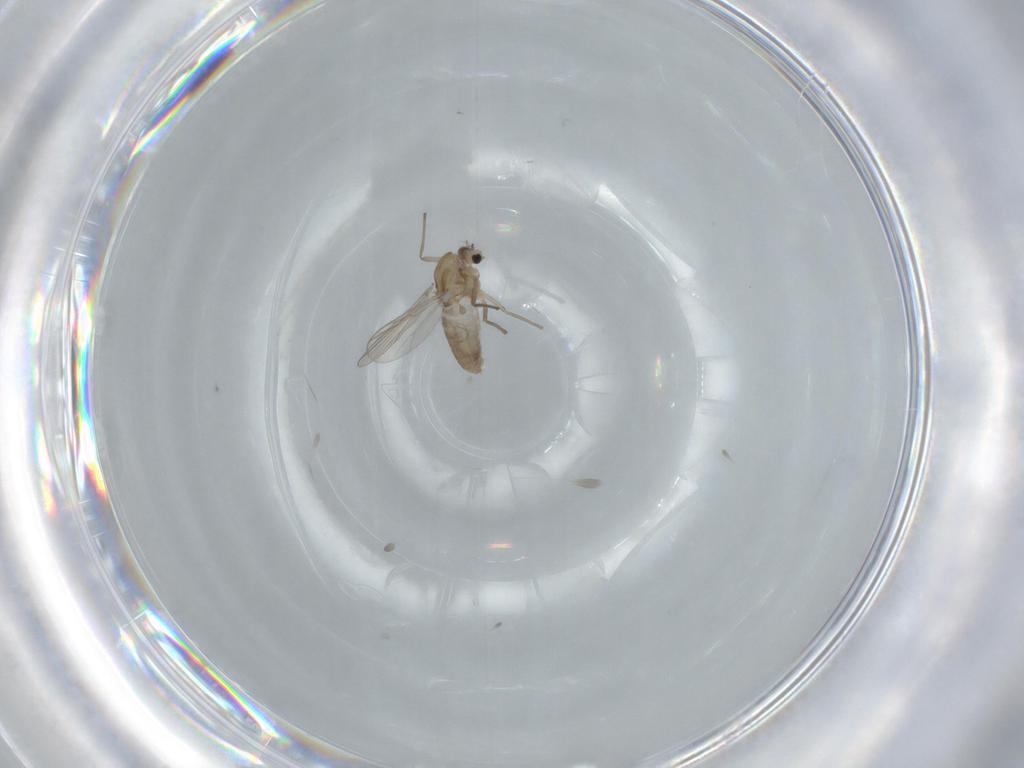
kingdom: Animalia
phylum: Arthropoda
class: Insecta
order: Diptera
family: Chironomidae
